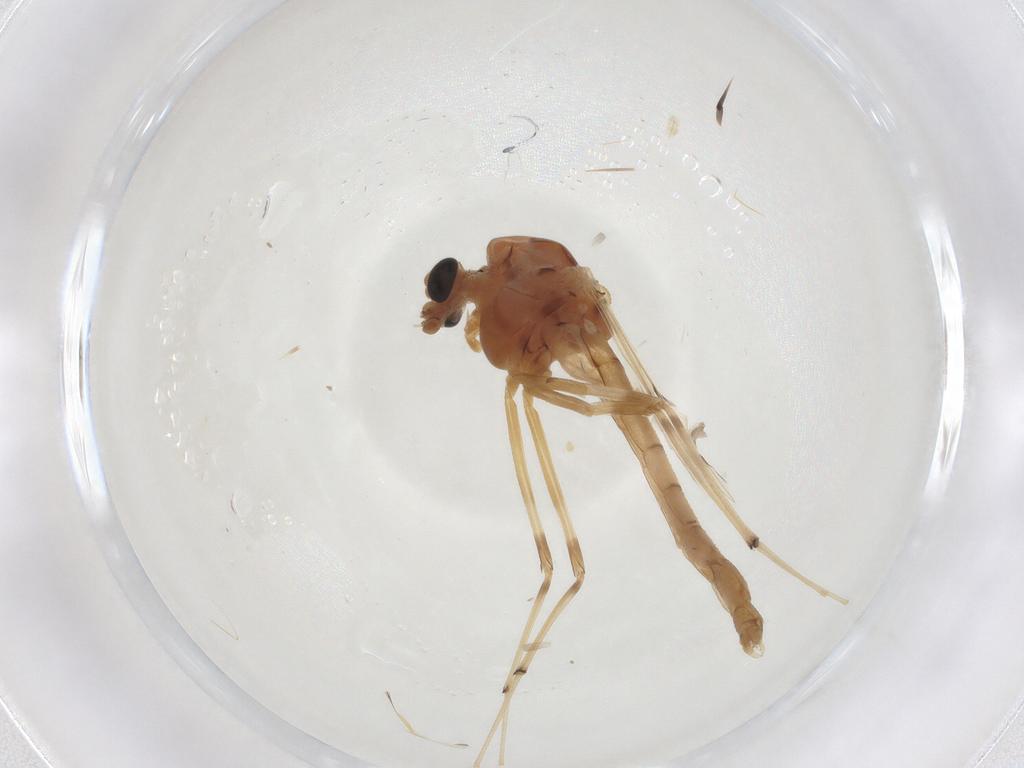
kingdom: Animalia
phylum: Arthropoda
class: Insecta
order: Diptera
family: Chironomidae
